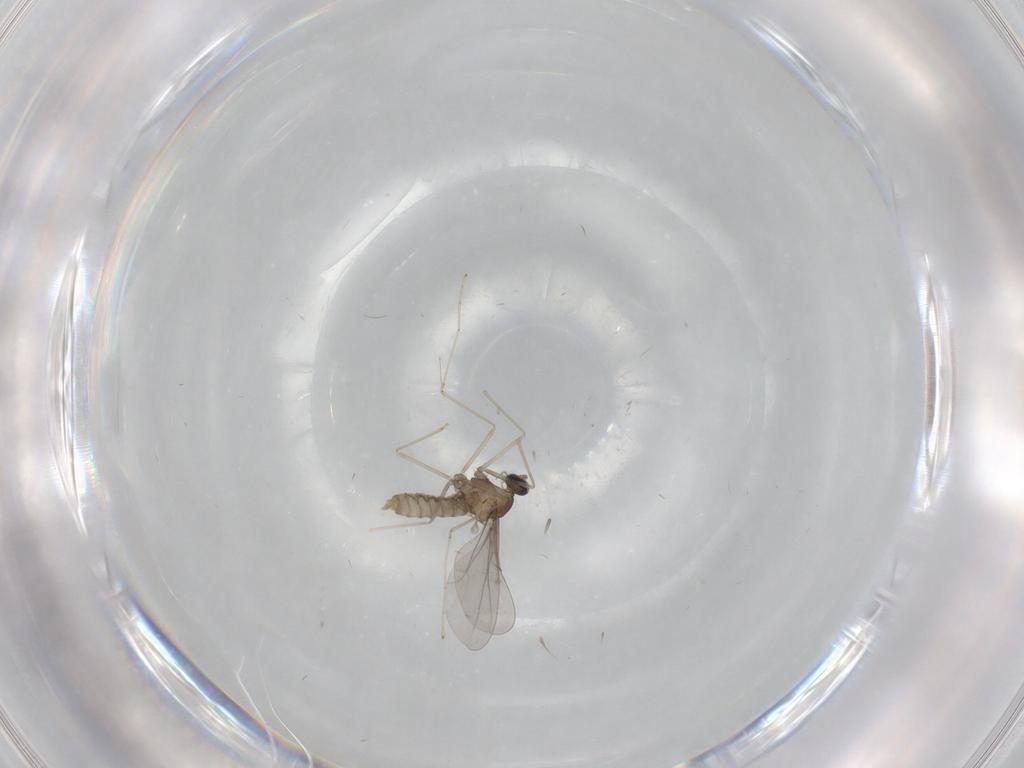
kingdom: Animalia
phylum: Arthropoda
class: Insecta
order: Diptera
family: Cecidomyiidae
